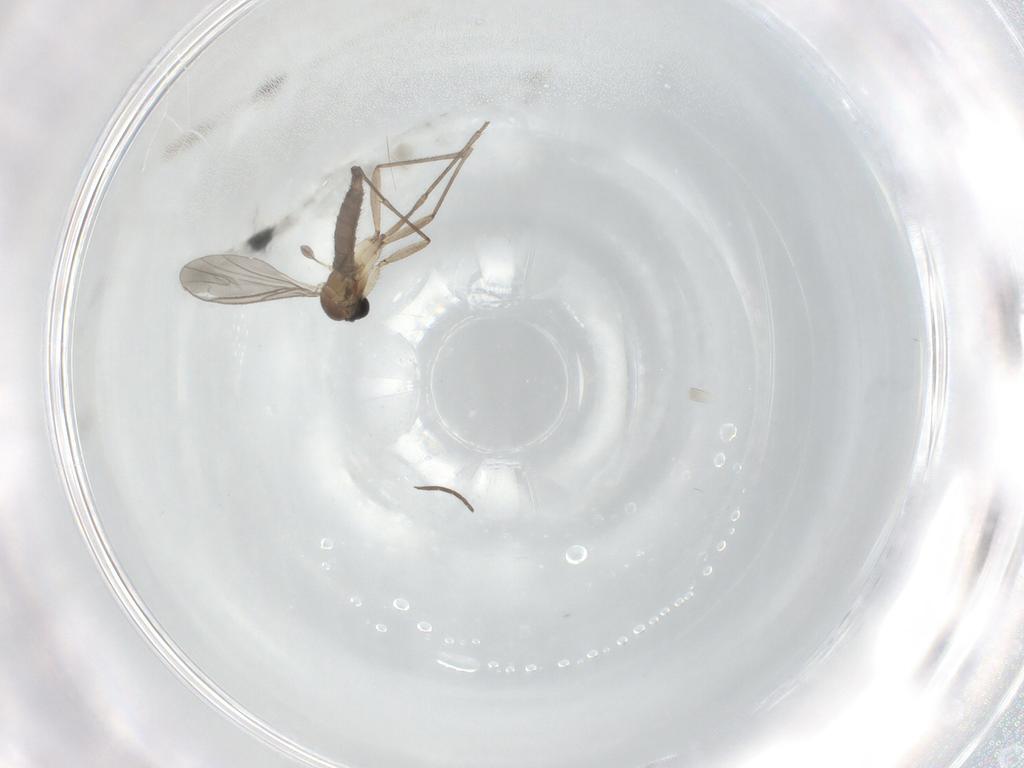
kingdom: Animalia
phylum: Arthropoda
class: Insecta
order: Diptera
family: Sciaridae
